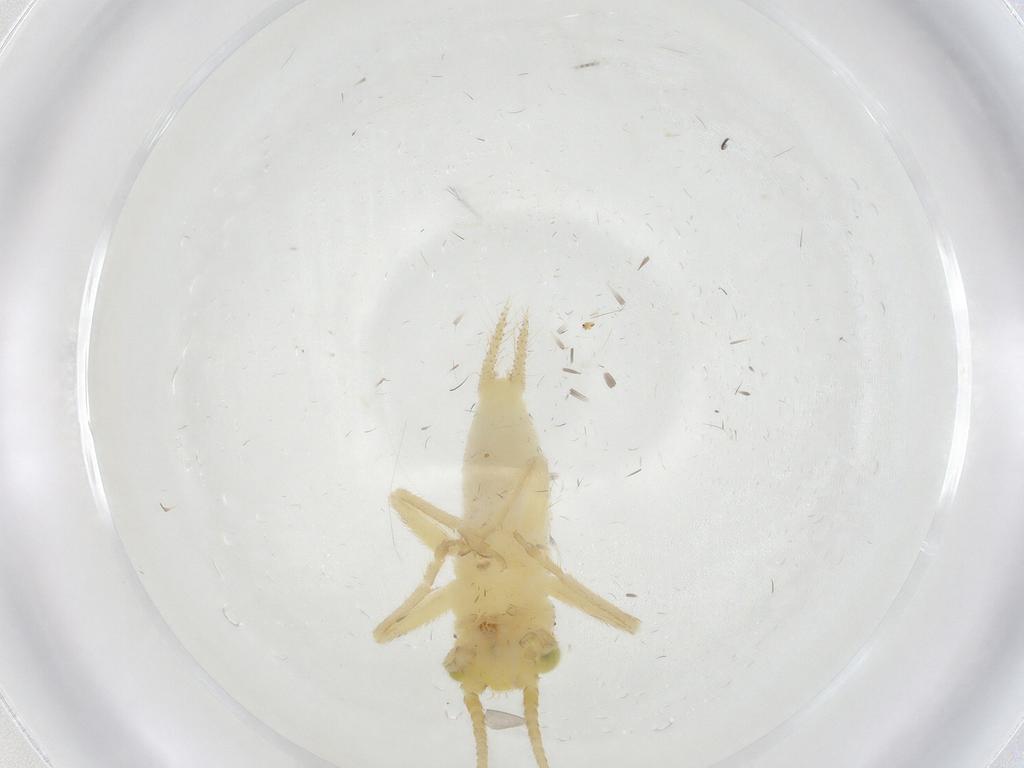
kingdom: Animalia
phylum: Arthropoda
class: Insecta
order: Orthoptera
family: Trigonidiidae
